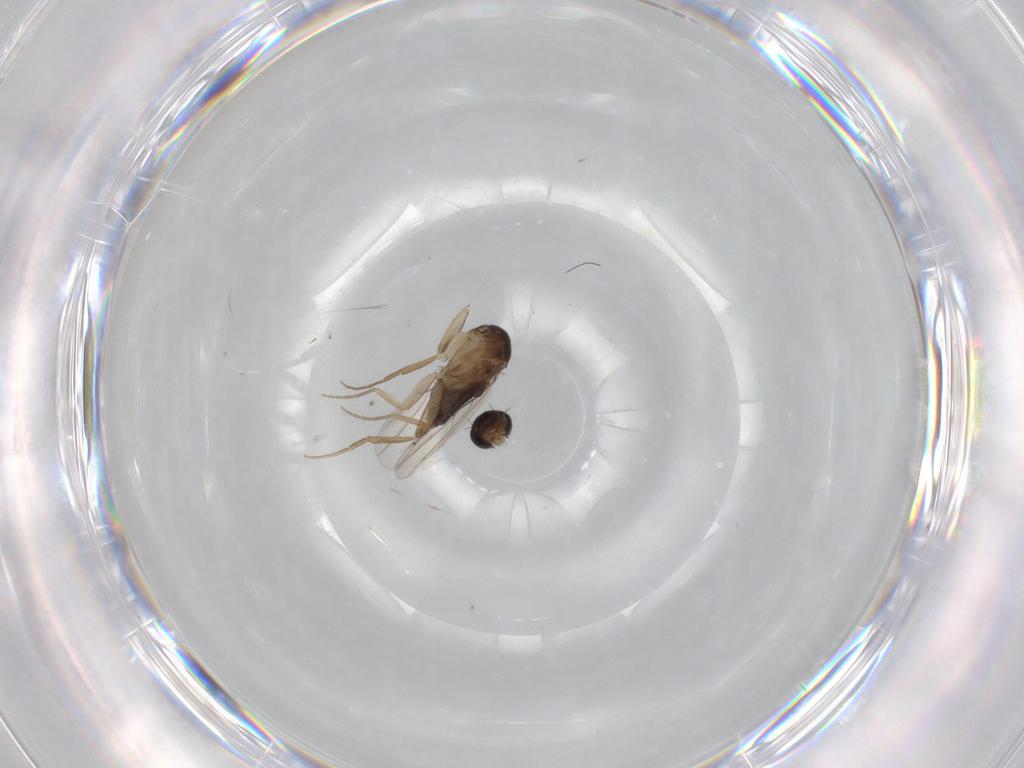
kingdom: Animalia
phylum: Arthropoda
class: Insecta
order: Diptera
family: Phoridae
